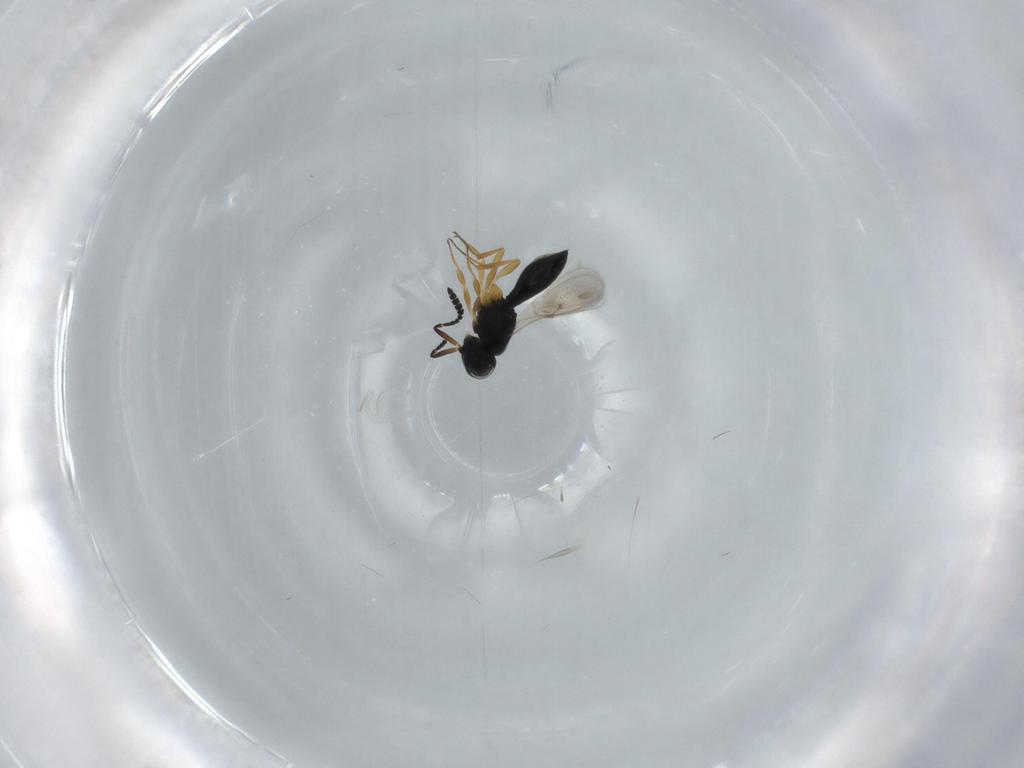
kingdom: Animalia
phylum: Arthropoda
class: Insecta
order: Hymenoptera
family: Scelionidae
